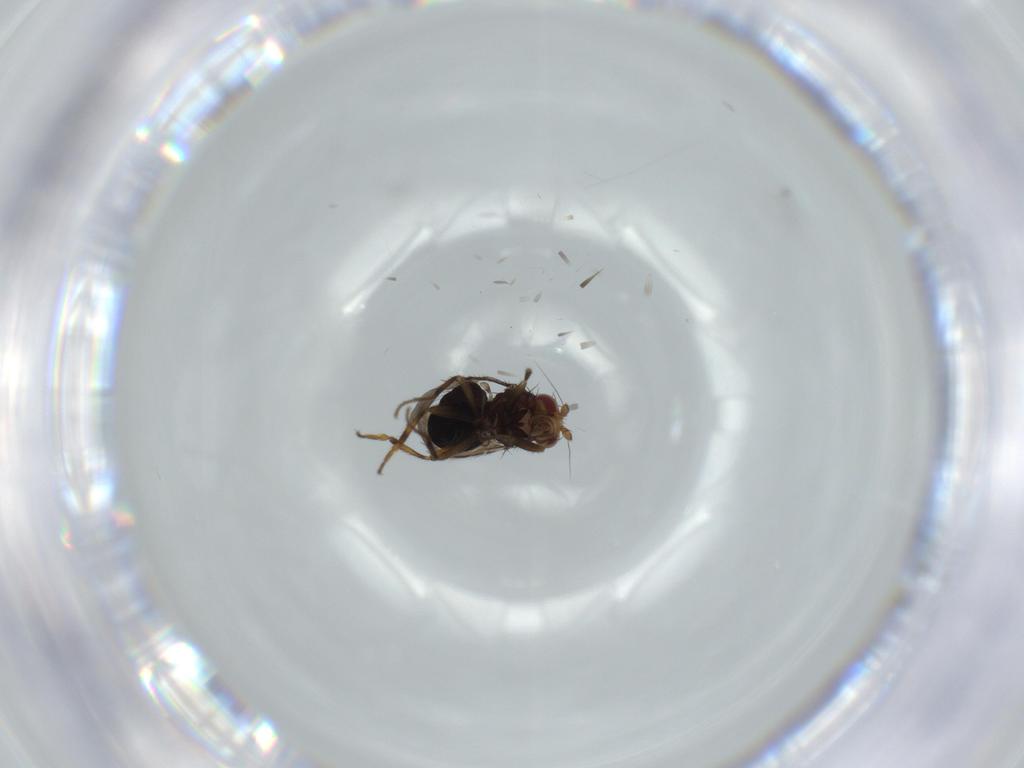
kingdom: Animalia
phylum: Arthropoda
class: Insecta
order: Diptera
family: Sphaeroceridae
